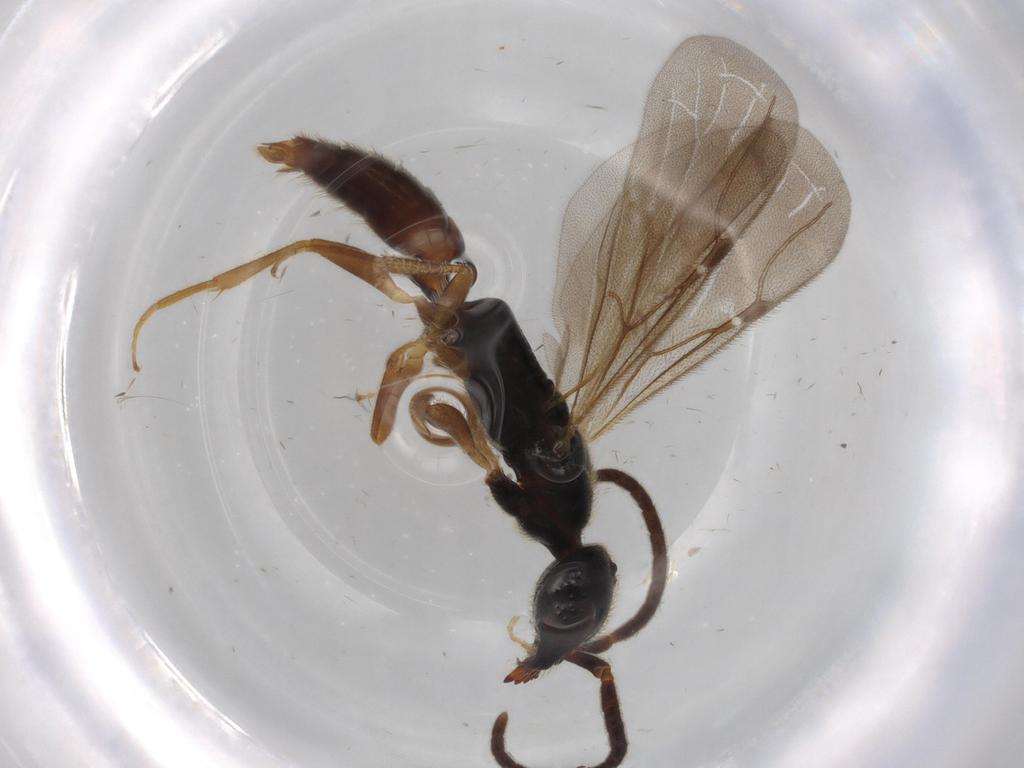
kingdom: Animalia
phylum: Arthropoda
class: Insecta
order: Hymenoptera
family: Bethylidae
